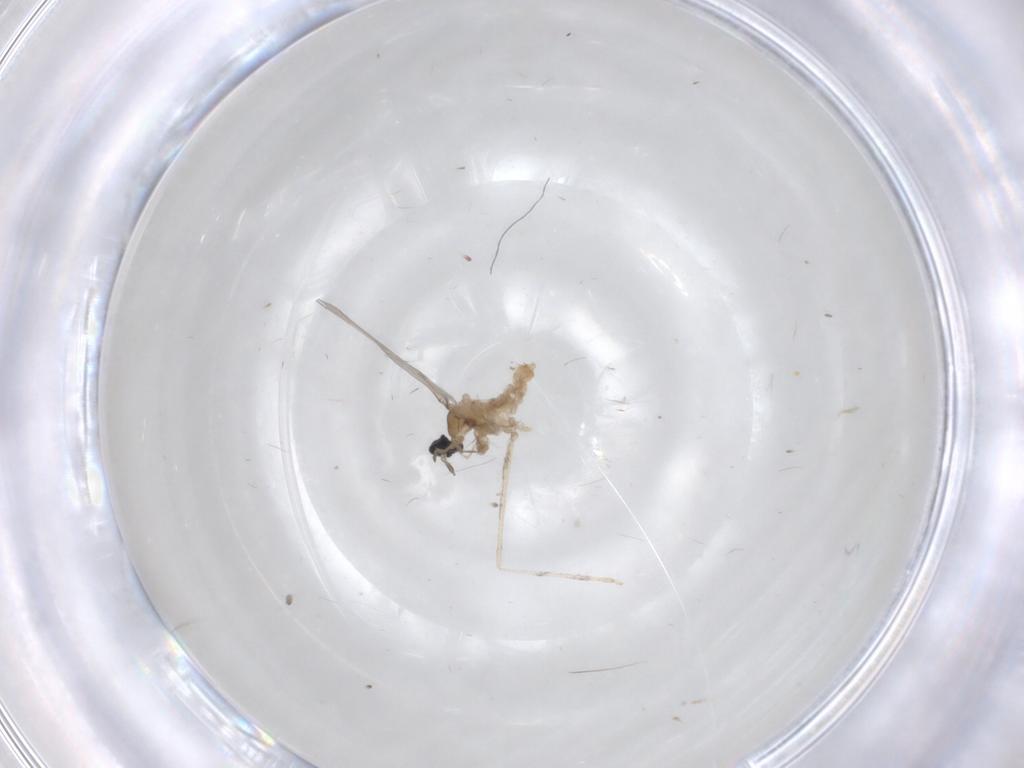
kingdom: Animalia
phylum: Arthropoda
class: Insecta
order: Diptera
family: Cecidomyiidae
